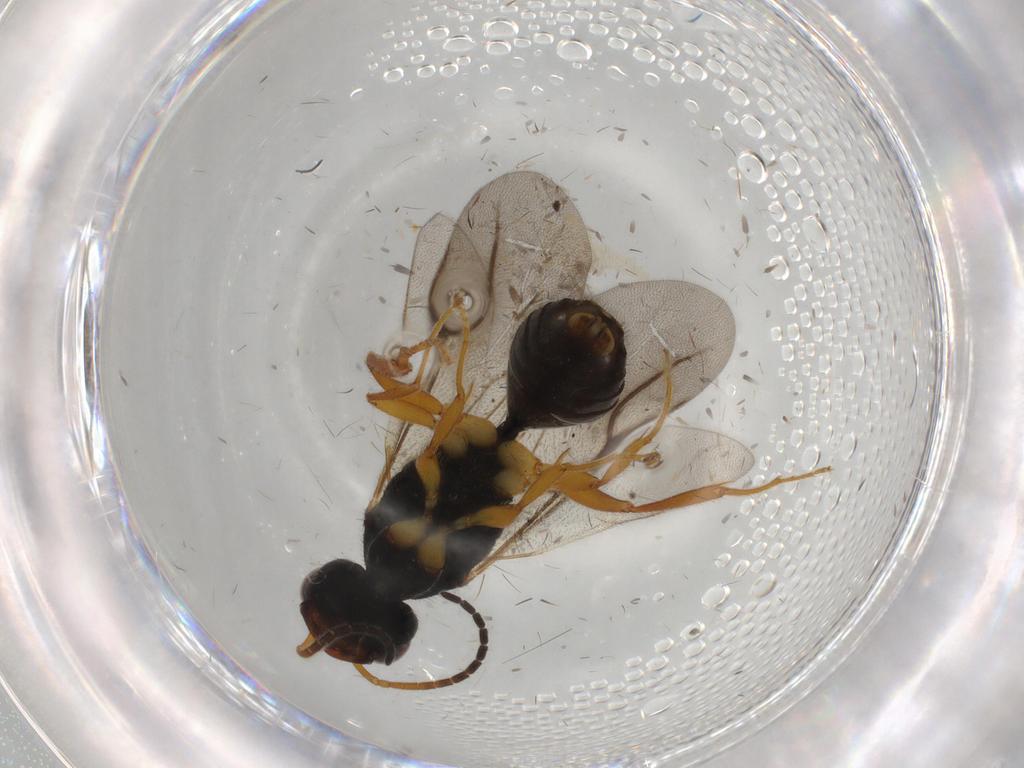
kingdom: Animalia
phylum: Arthropoda
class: Insecta
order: Hymenoptera
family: Bethylidae
